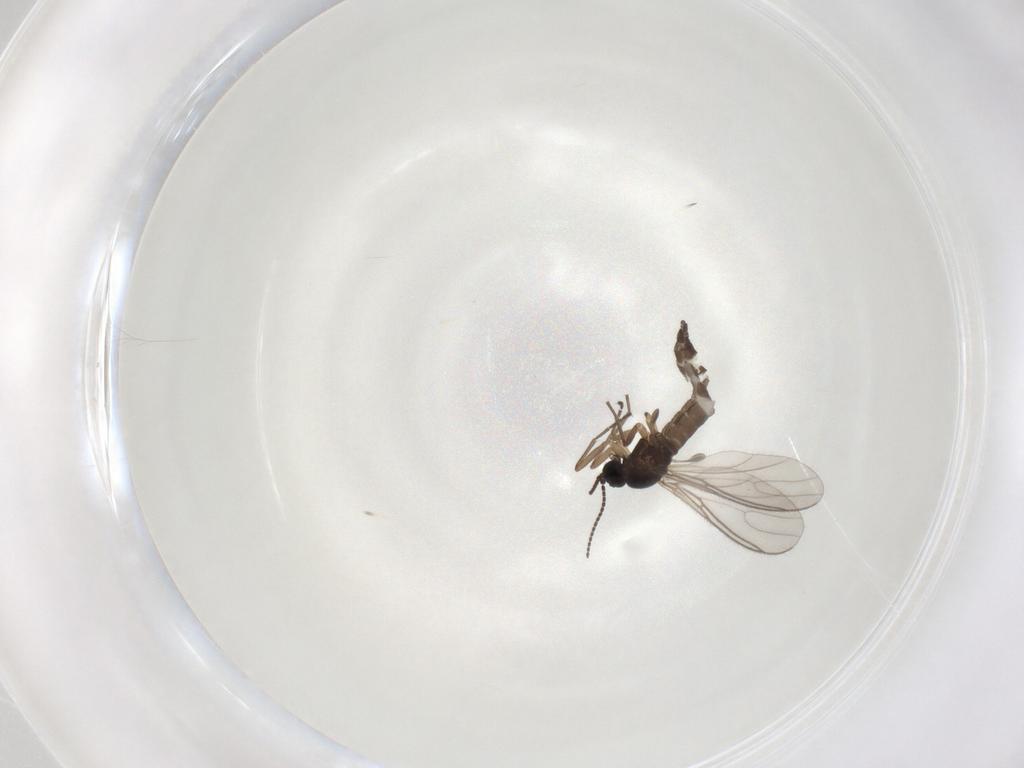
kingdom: Animalia
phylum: Arthropoda
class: Insecta
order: Diptera
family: Sciaridae
